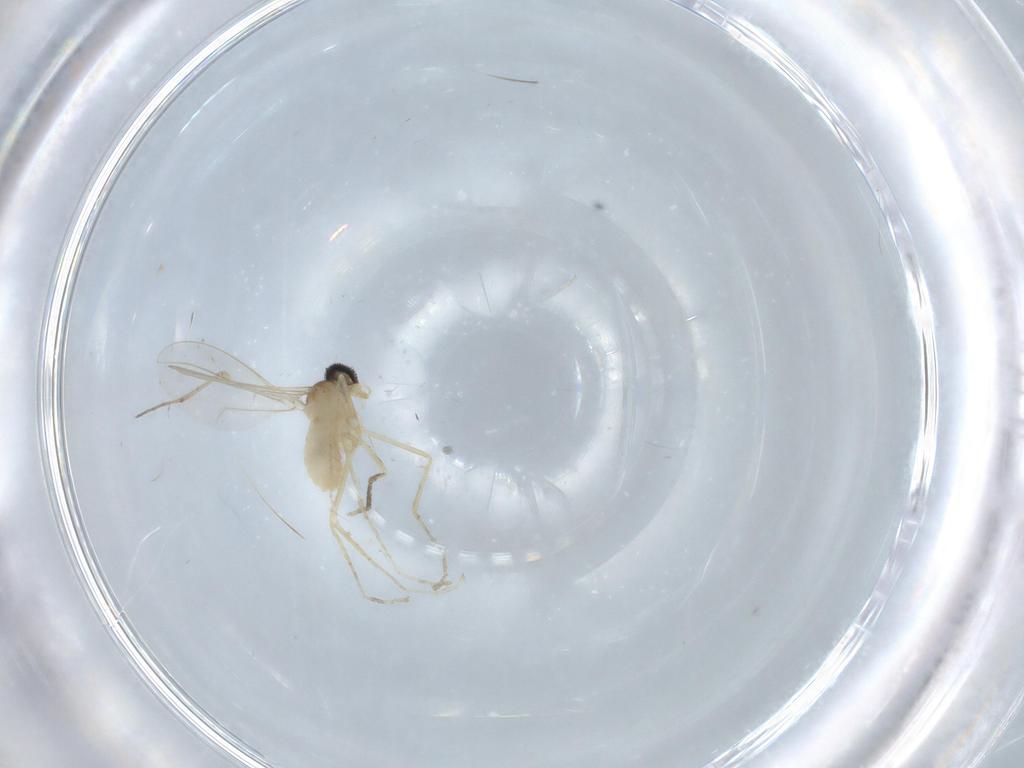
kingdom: Animalia
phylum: Arthropoda
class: Insecta
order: Diptera
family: Cecidomyiidae
